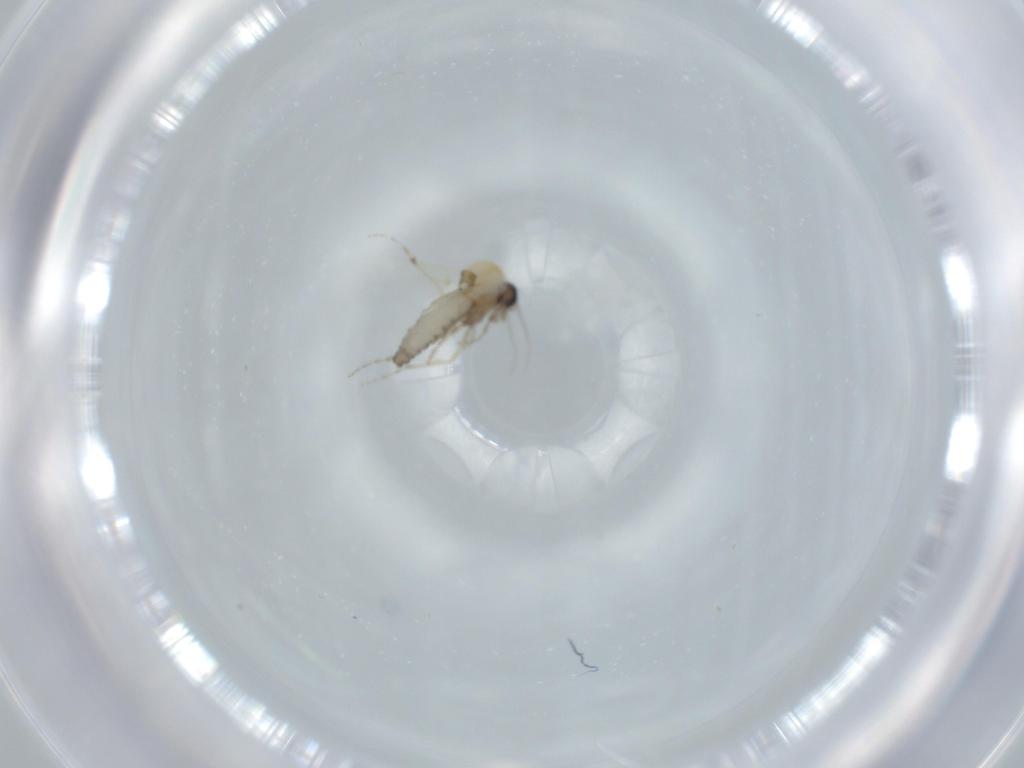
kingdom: Animalia
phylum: Arthropoda
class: Insecta
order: Diptera
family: Ceratopogonidae
